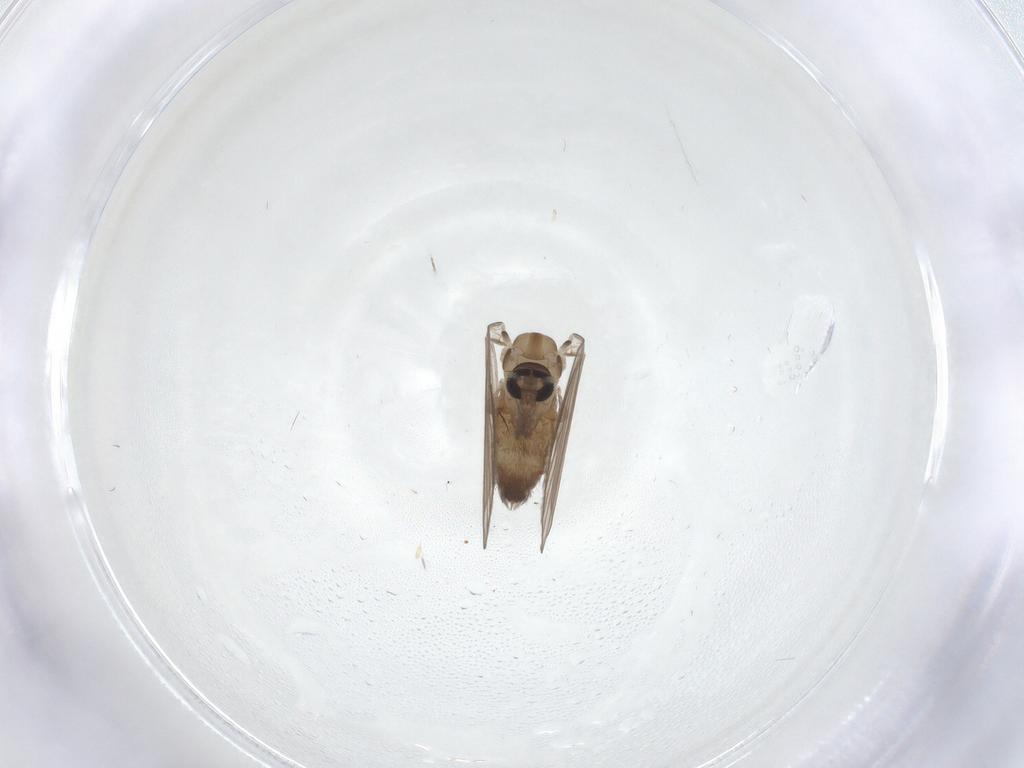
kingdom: Animalia
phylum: Arthropoda
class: Insecta
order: Diptera
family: Psychodidae
